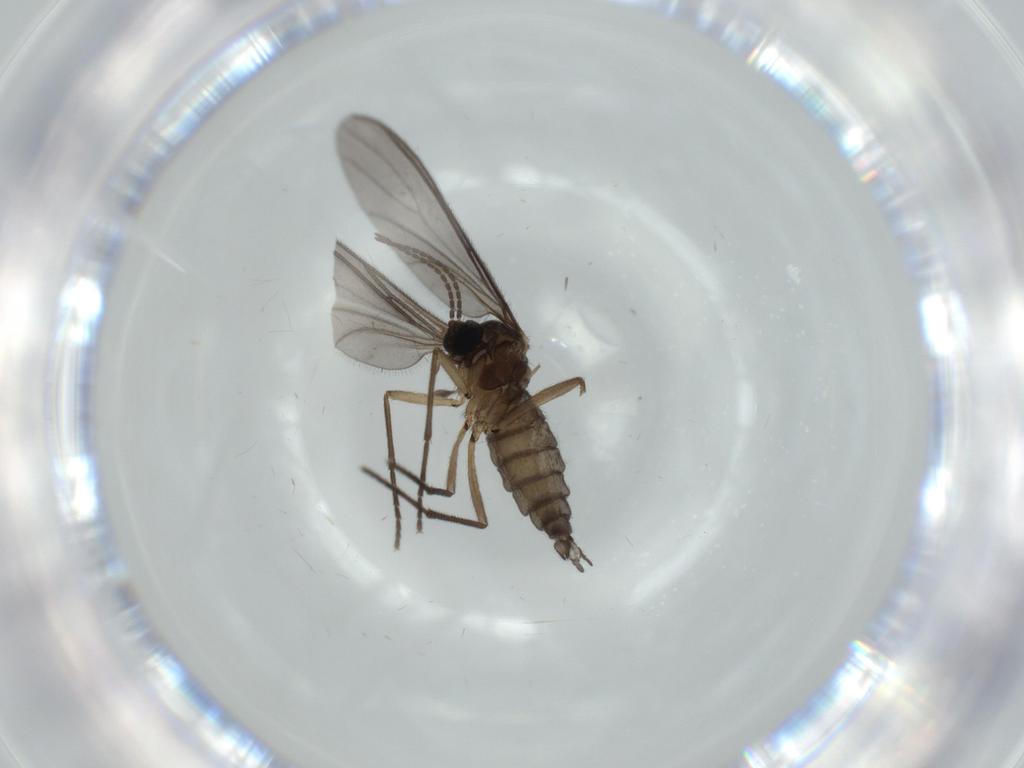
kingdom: Animalia
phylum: Arthropoda
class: Insecta
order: Diptera
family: Sciaridae
